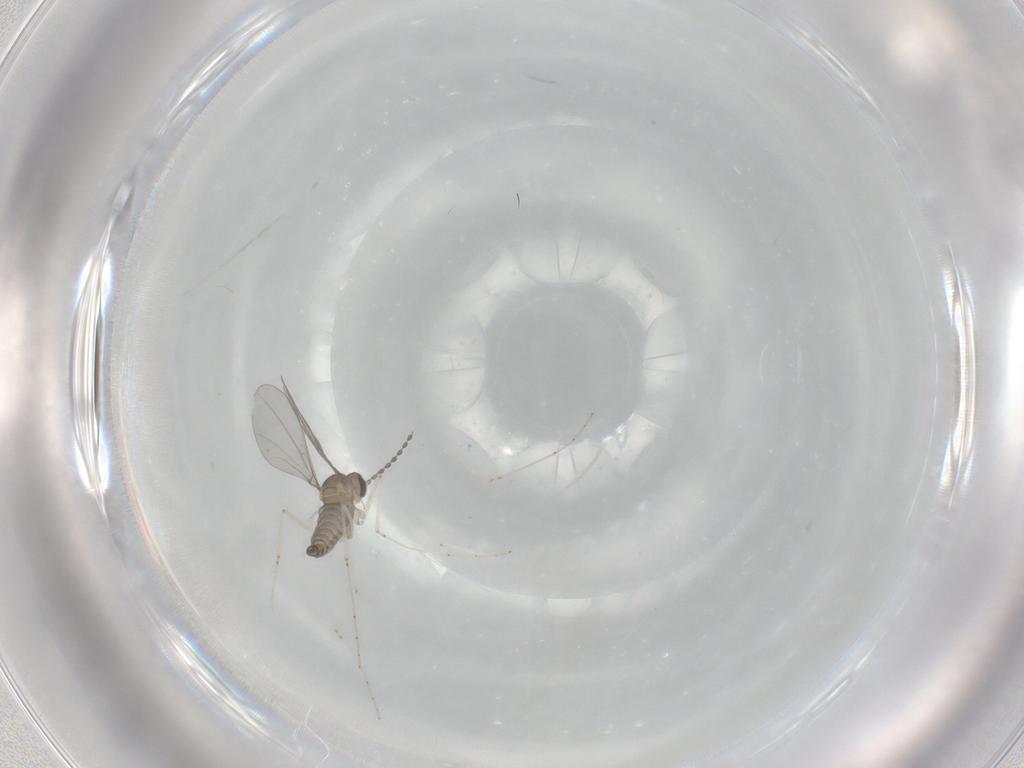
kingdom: Animalia
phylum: Arthropoda
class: Insecta
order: Diptera
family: Cecidomyiidae
